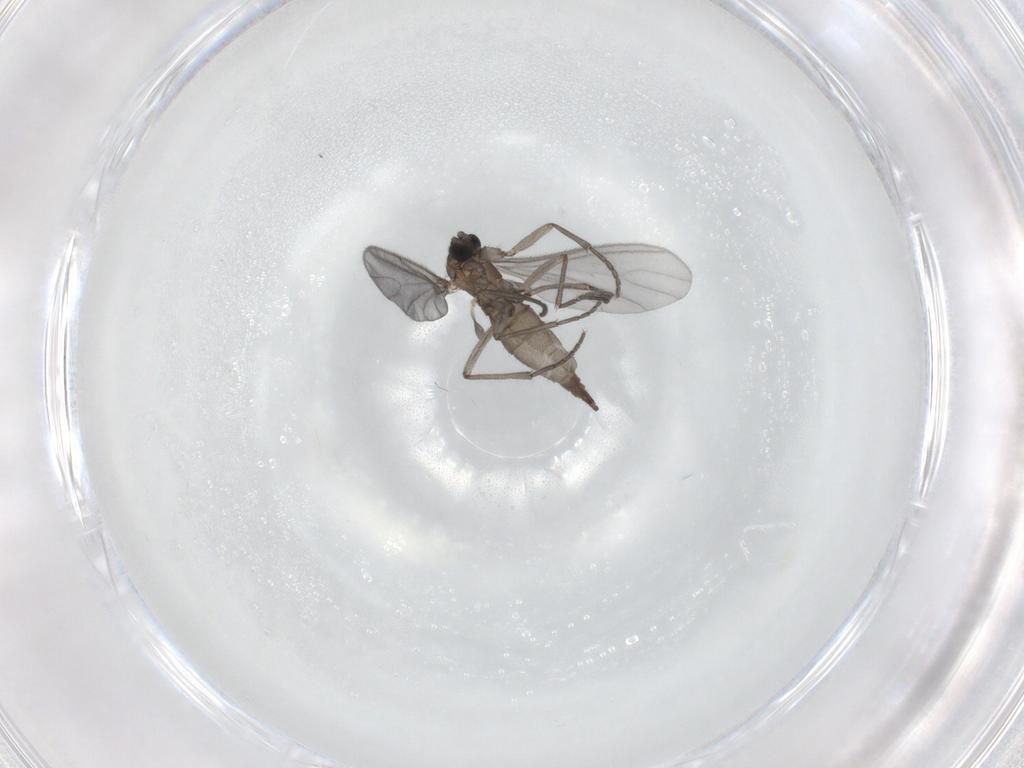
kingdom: Animalia
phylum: Arthropoda
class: Insecta
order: Diptera
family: Sciaridae
